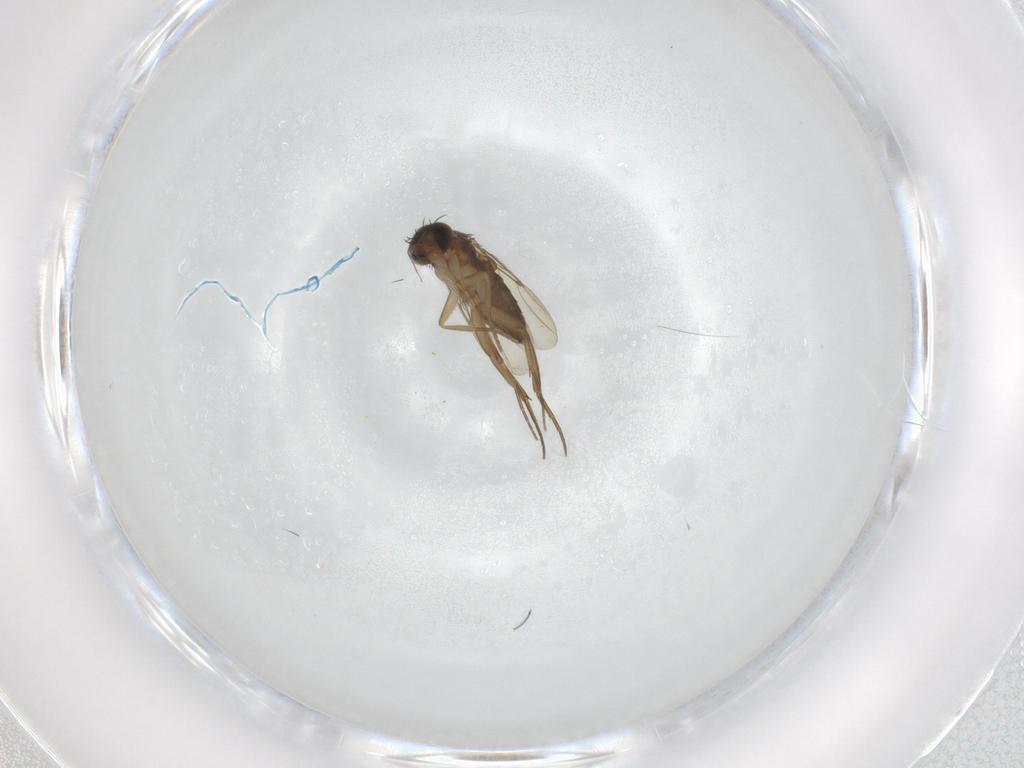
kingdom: Animalia
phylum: Arthropoda
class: Insecta
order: Diptera
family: Phoridae
